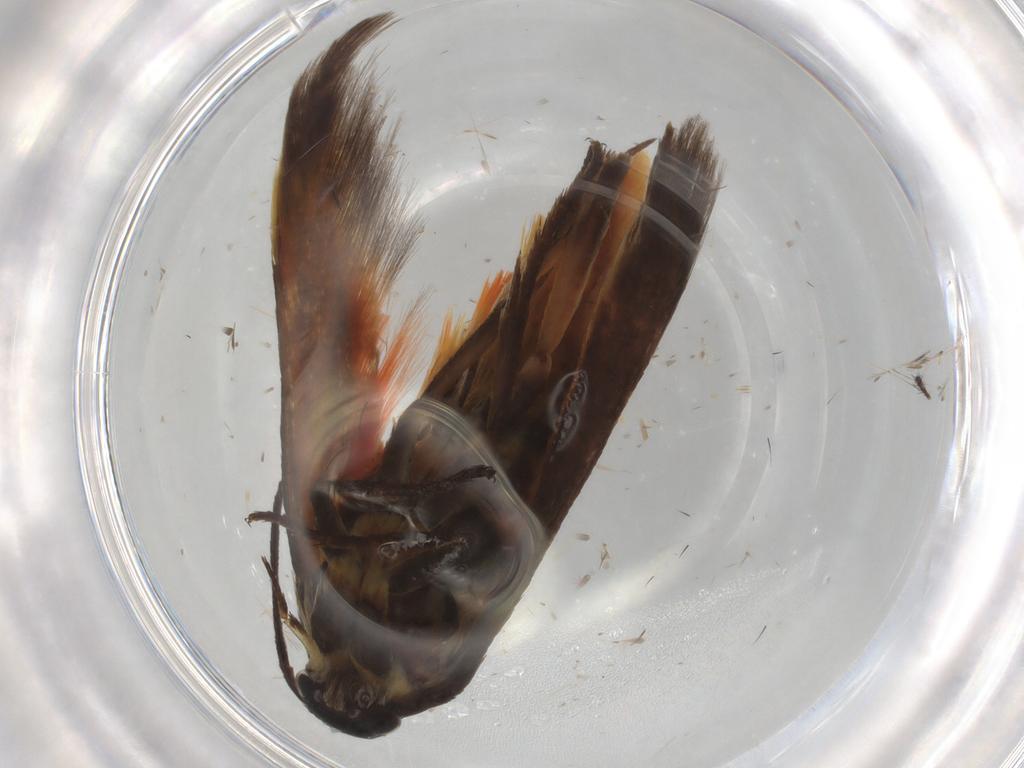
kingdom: Animalia
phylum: Arthropoda
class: Insecta
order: Lepidoptera
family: Scythrididae
